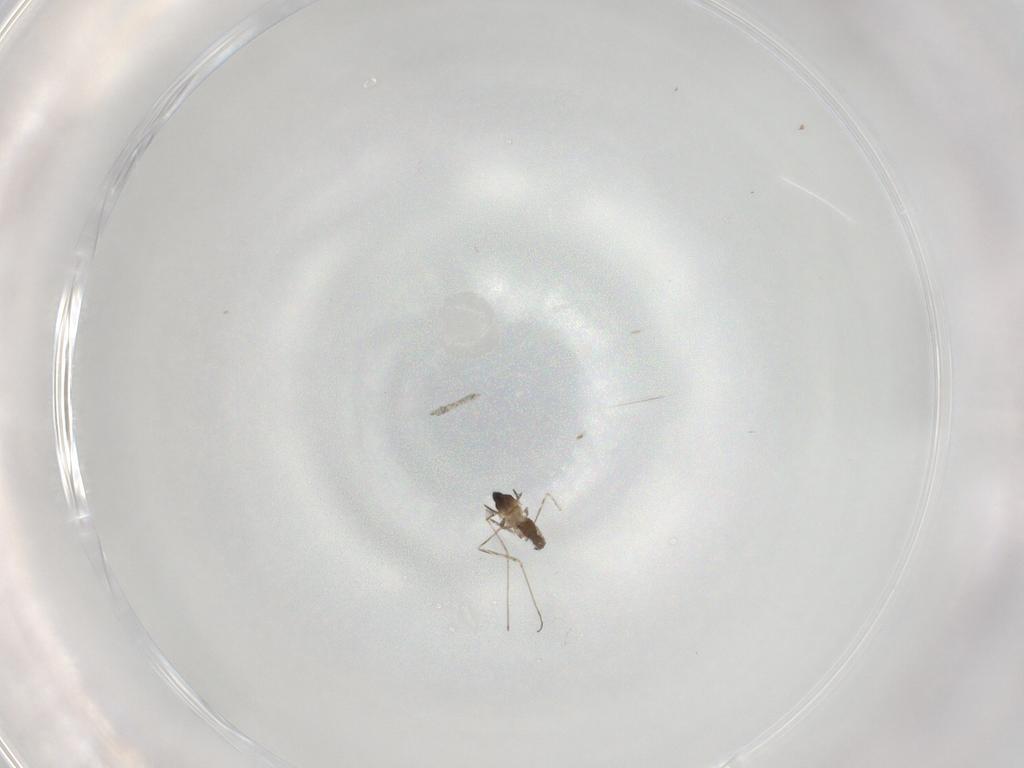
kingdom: Animalia
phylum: Arthropoda
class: Insecta
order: Diptera
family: Cecidomyiidae
